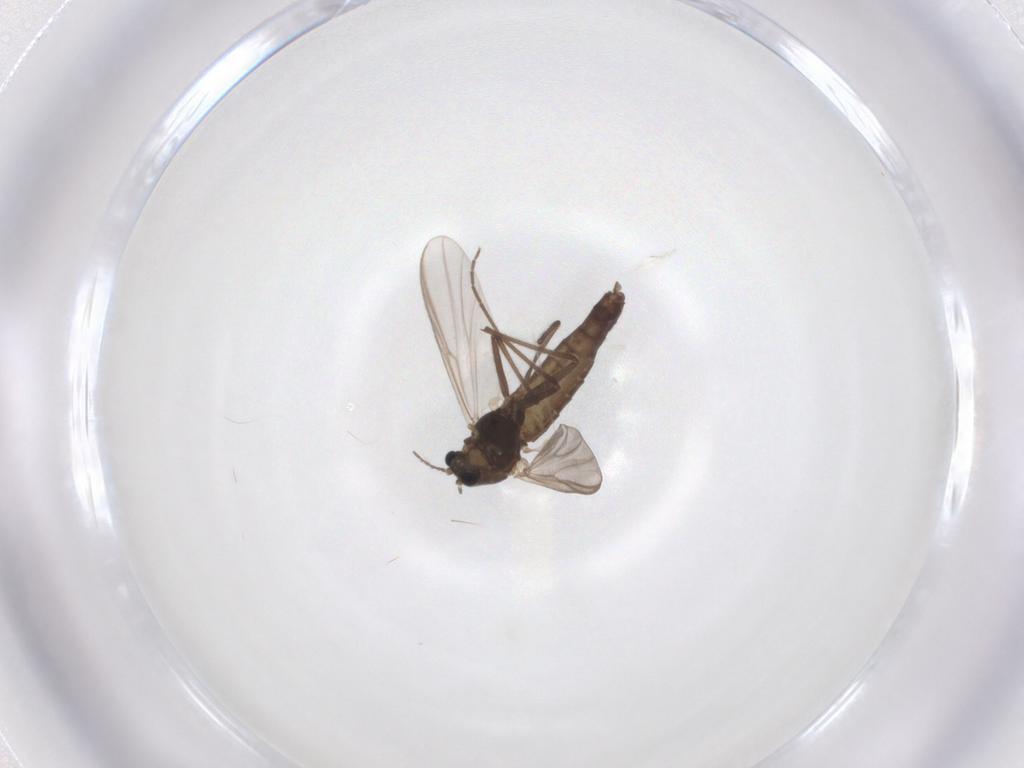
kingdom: Animalia
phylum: Arthropoda
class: Insecta
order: Diptera
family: Chironomidae
